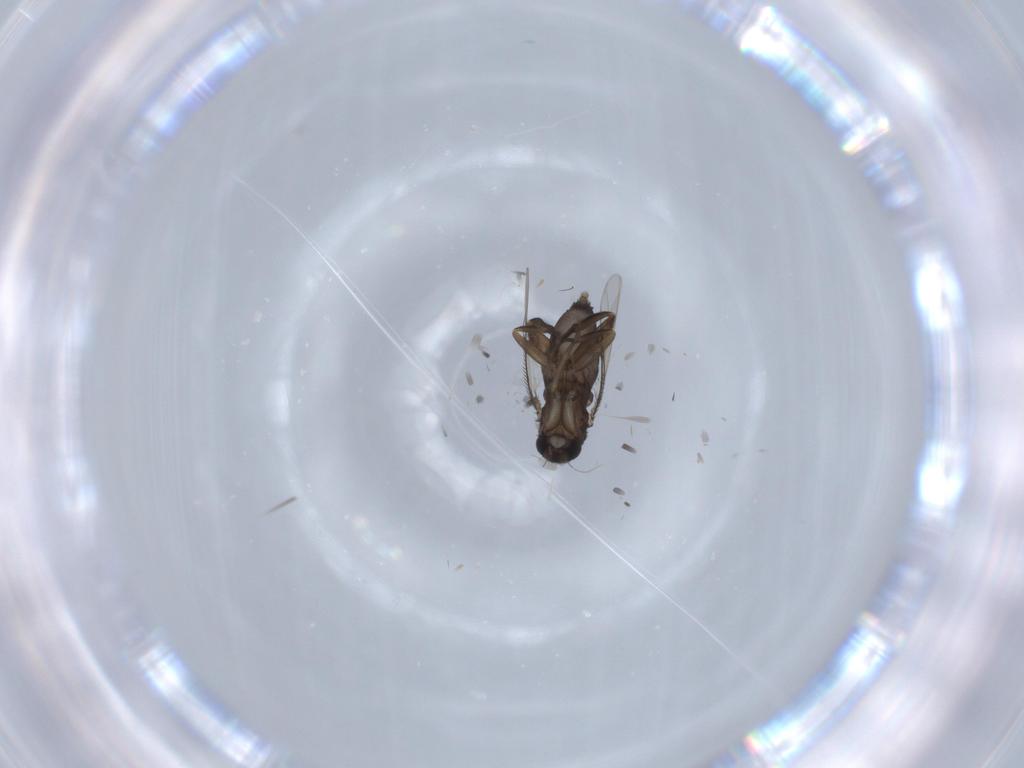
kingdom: Animalia
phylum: Arthropoda
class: Insecta
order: Diptera
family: Phoridae
